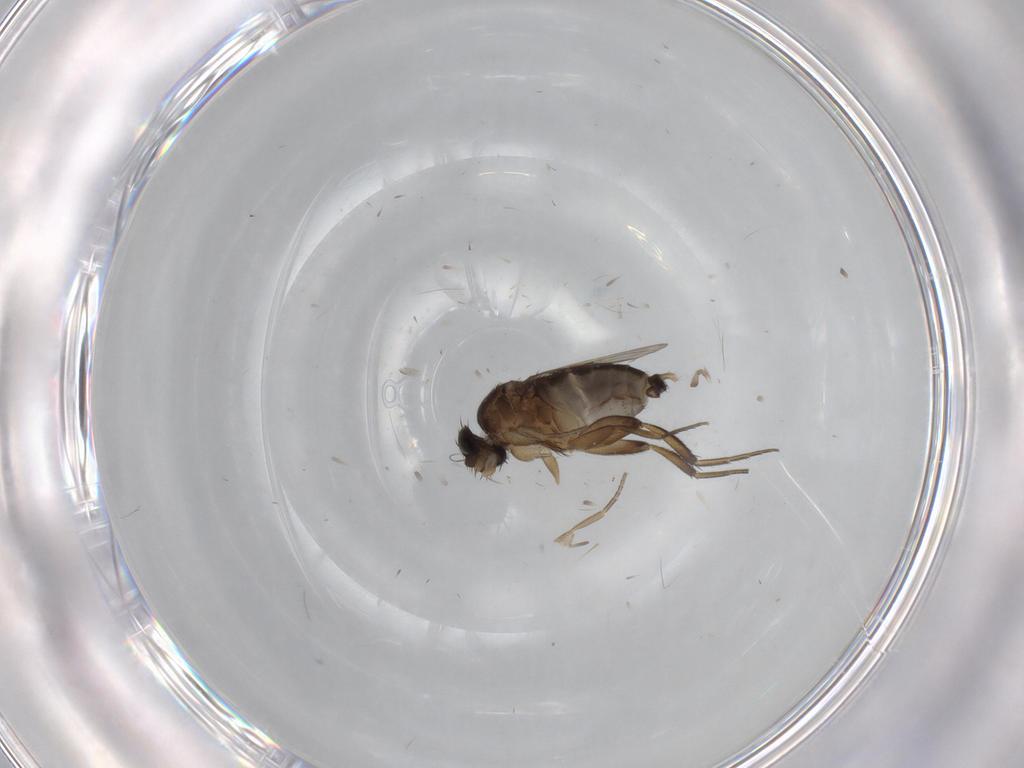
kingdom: Animalia
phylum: Arthropoda
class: Insecta
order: Diptera
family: Phoridae
